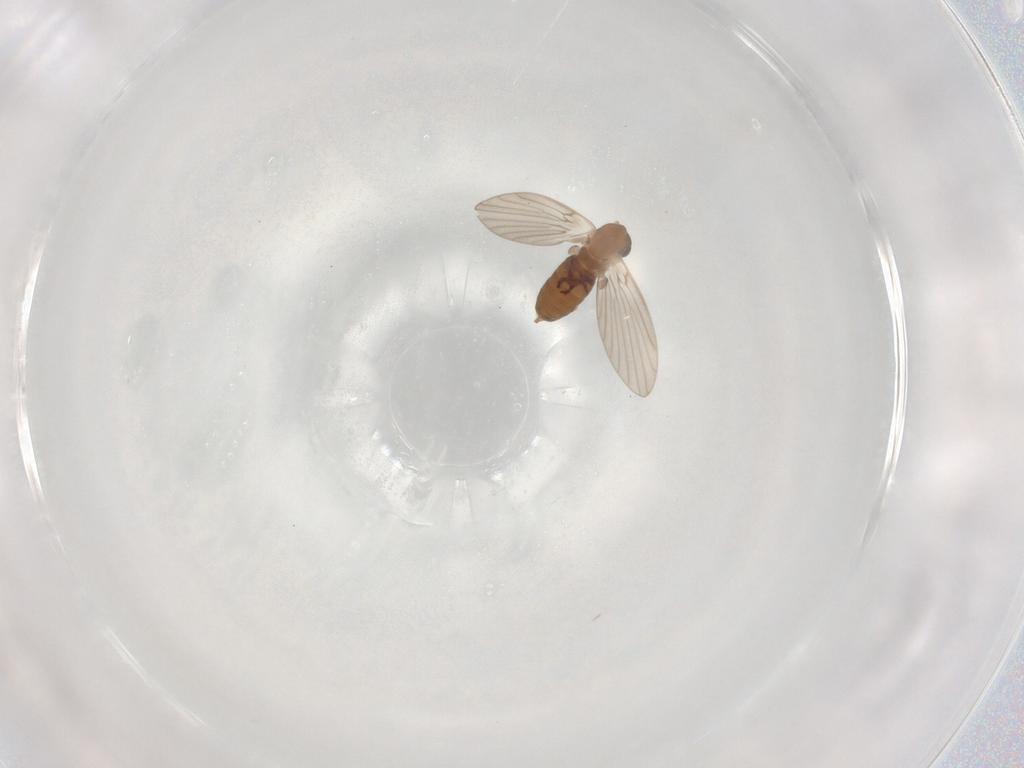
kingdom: Animalia
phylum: Arthropoda
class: Insecta
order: Diptera
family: Psychodidae
